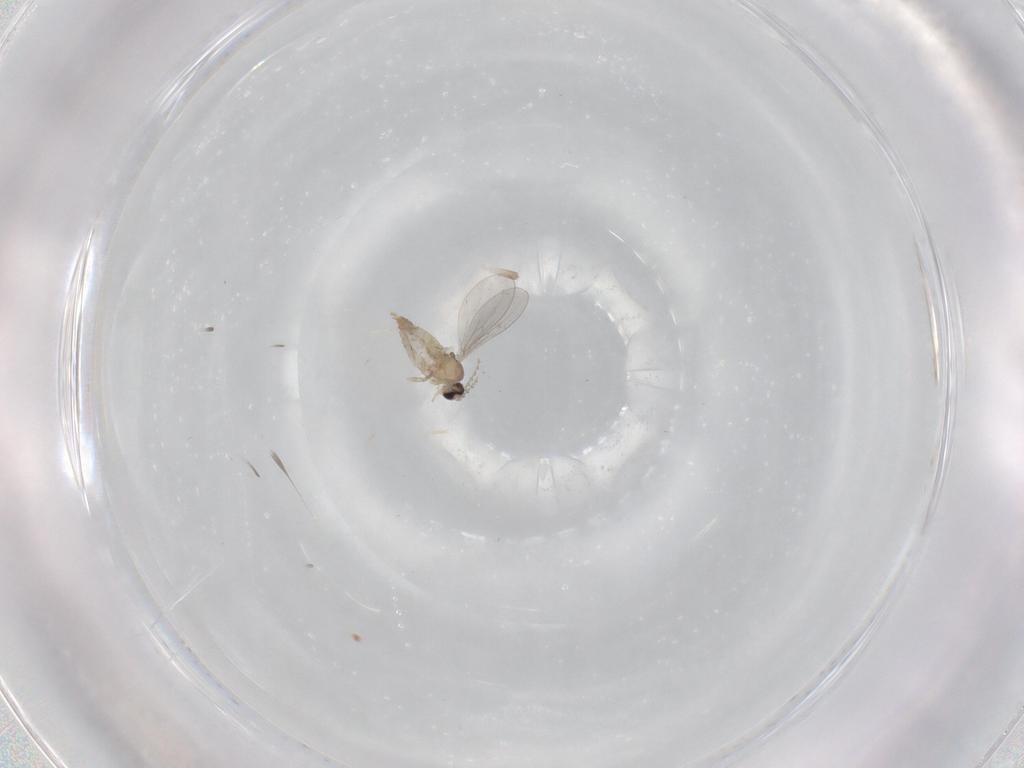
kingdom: Animalia
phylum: Arthropoda
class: Insecta
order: Diptera
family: Cecidomyiidae
